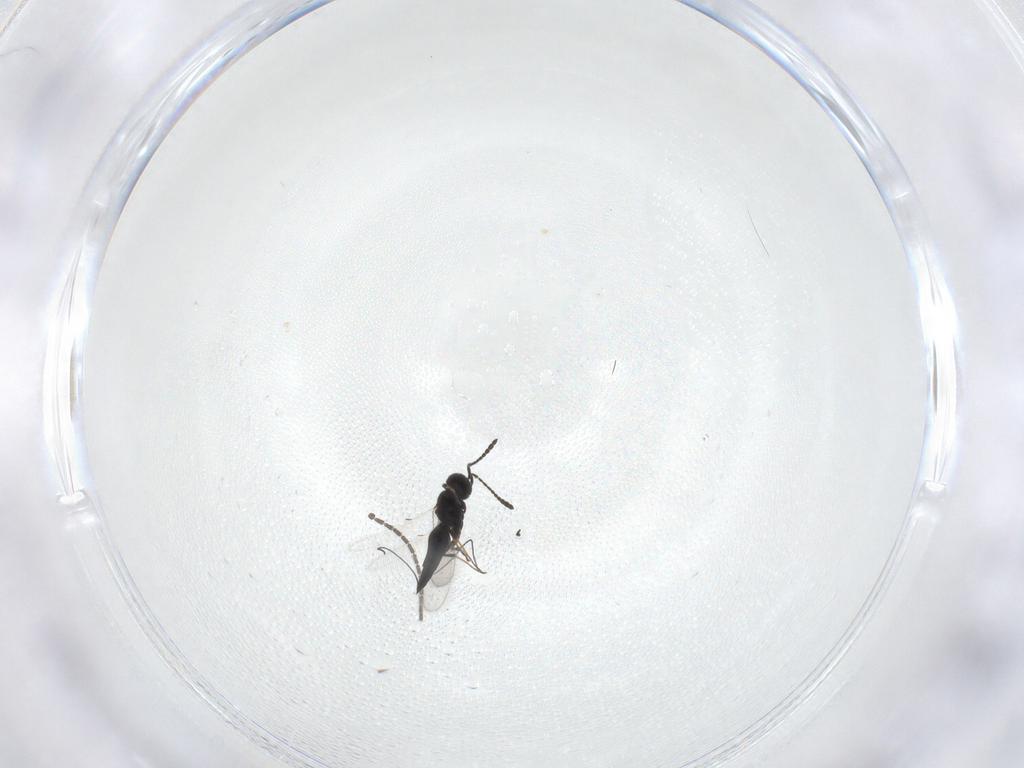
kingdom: Animalia
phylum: Arthropoda
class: Insecta
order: Hymenoptera
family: Scelionidae
